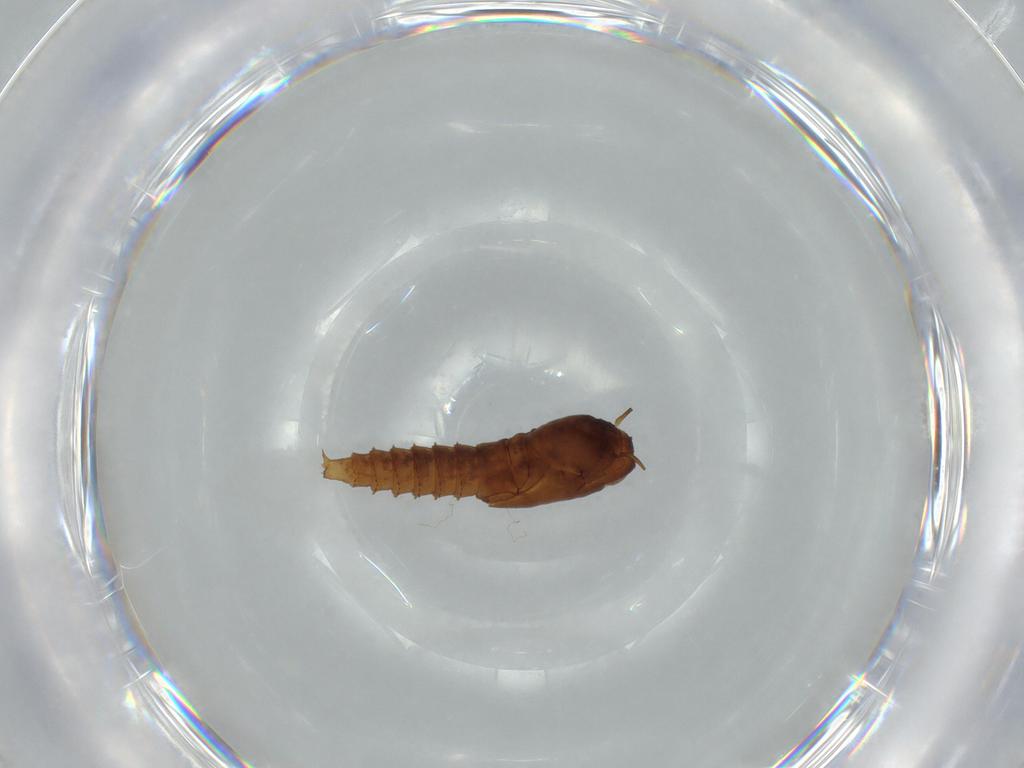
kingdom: Animalia
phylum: Arthropoda
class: Insecta
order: Diptera
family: Ceratopogonidae
